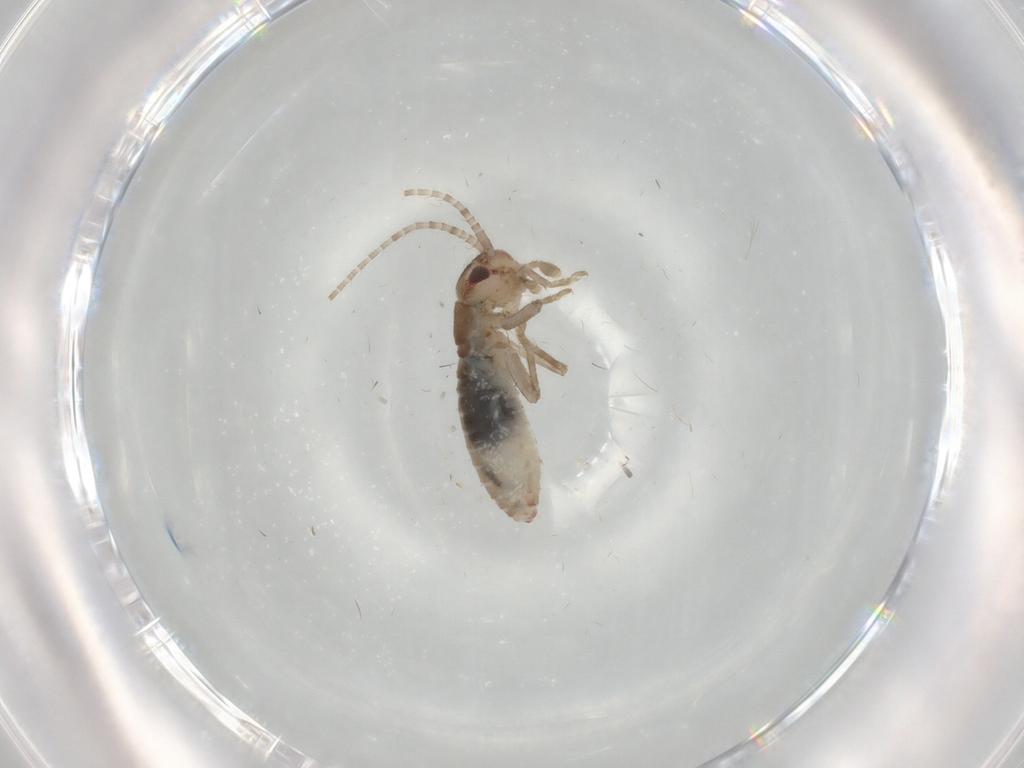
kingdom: Animalia
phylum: Arthropoda
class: Insecta
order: Orthoptera
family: Mogoplistidae
